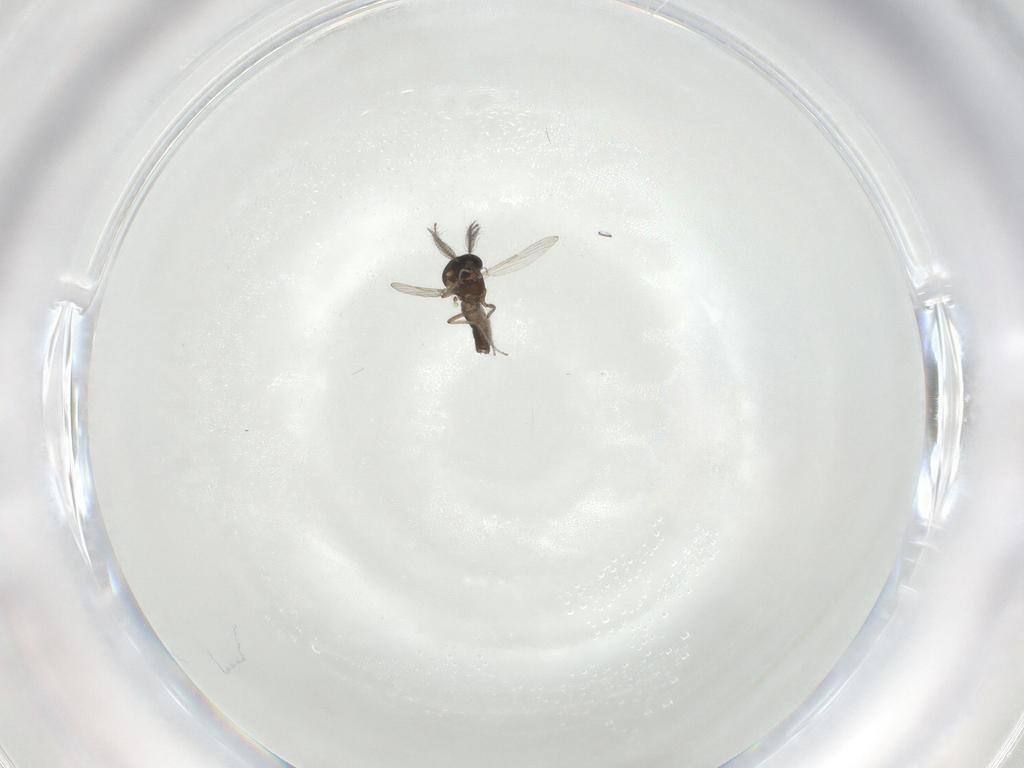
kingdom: Animalia
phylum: Arthropoda
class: Insecta
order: Diptera
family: Ceratopogonidae
